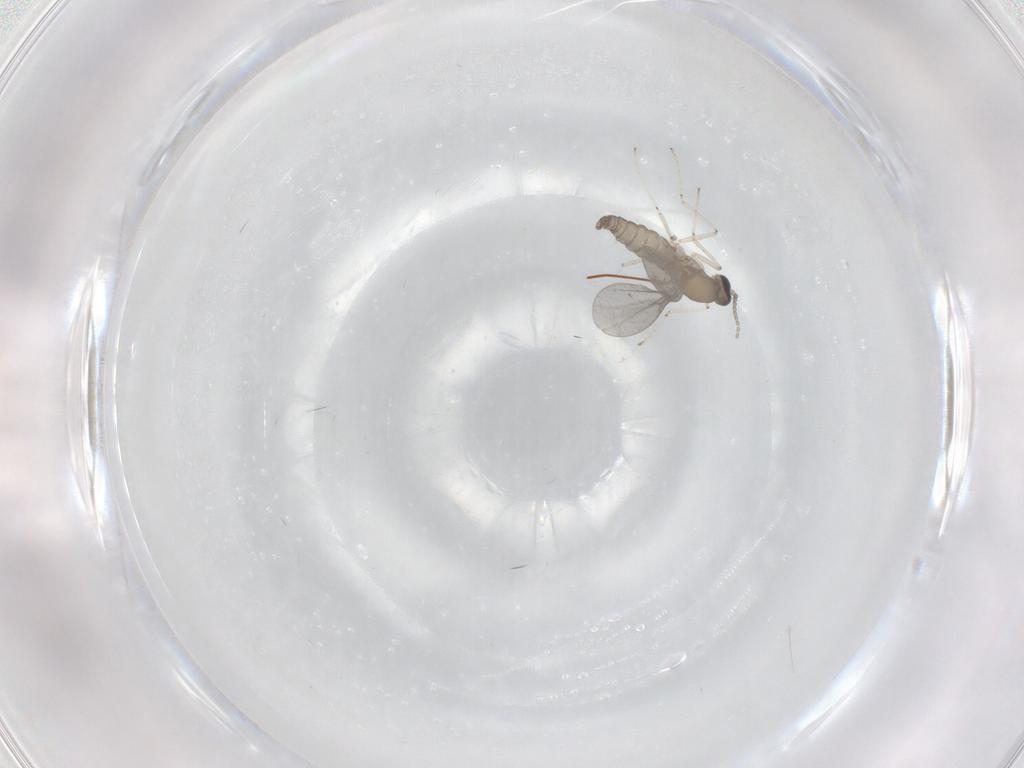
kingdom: Animalia
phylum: Arthropoda
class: Insecta
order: Diptera
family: Cecidomyiidae
